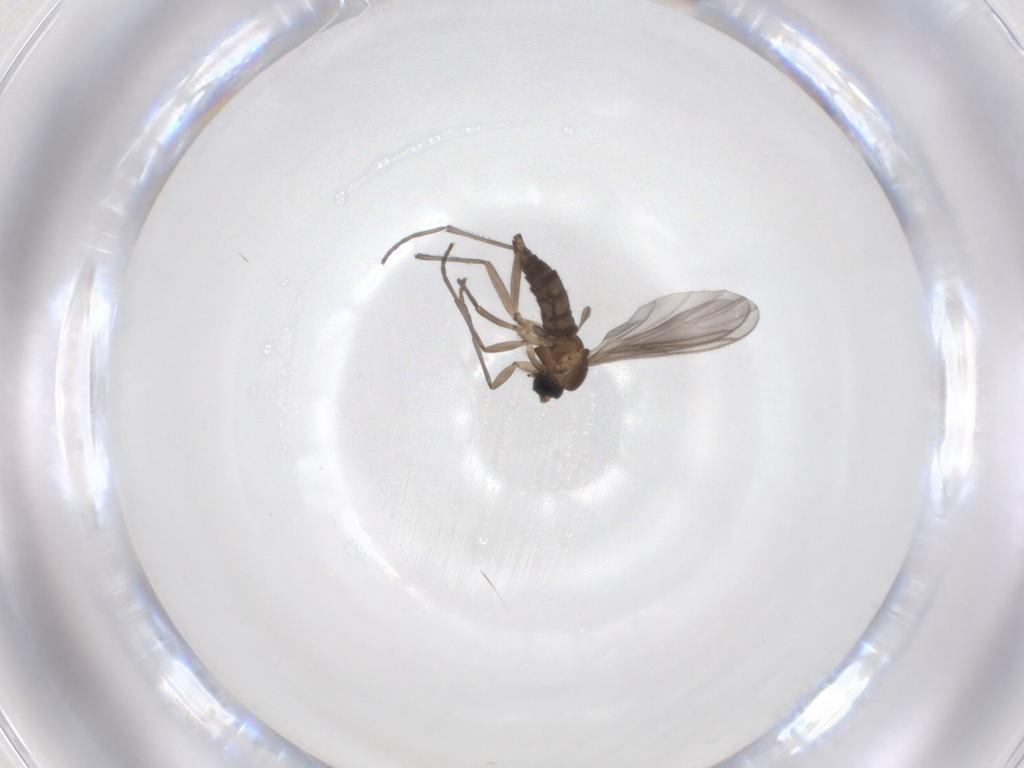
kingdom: Animalia
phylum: Arthropoda
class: Insecta
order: Diptera
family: Sciaridae
